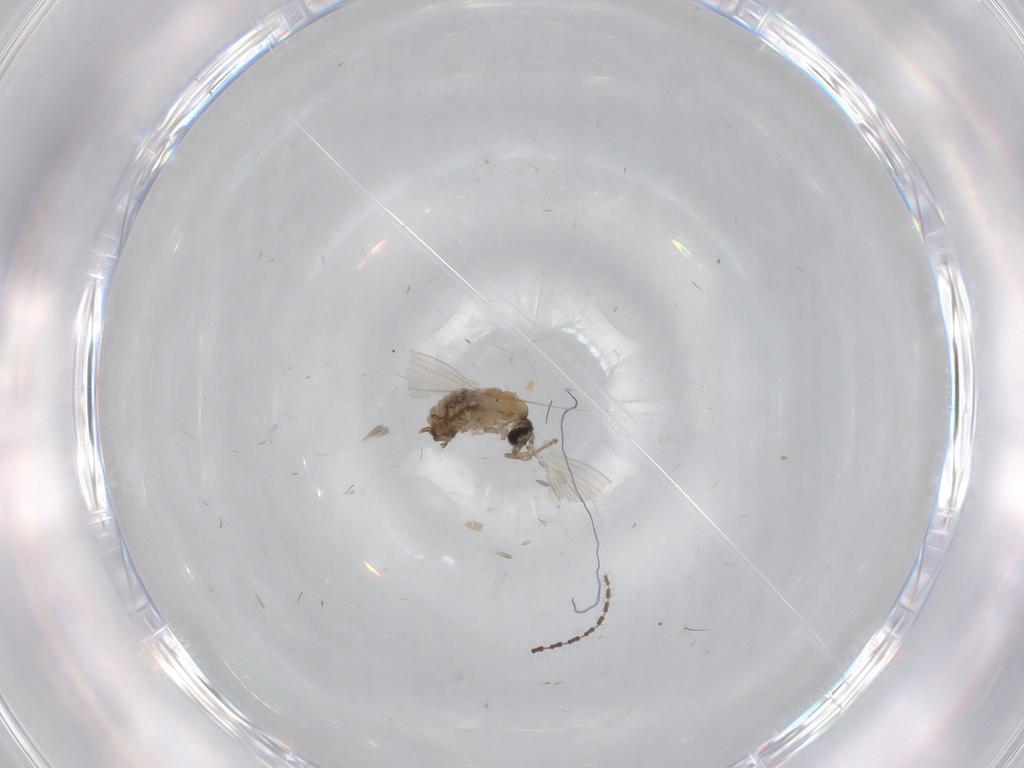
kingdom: Animalia
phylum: Arthropoda
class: Insecta
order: Diptera
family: Psychodidae
